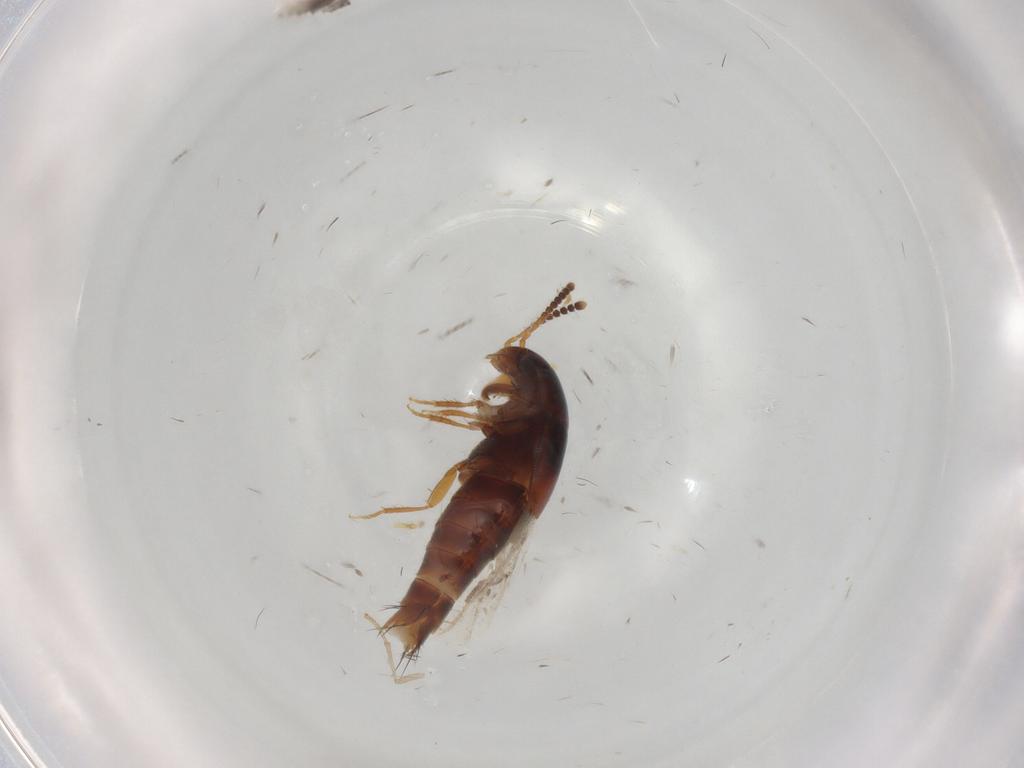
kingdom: Animalia
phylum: Arthropoda
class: Insecta
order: Coleoptera
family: Staphylinidae
